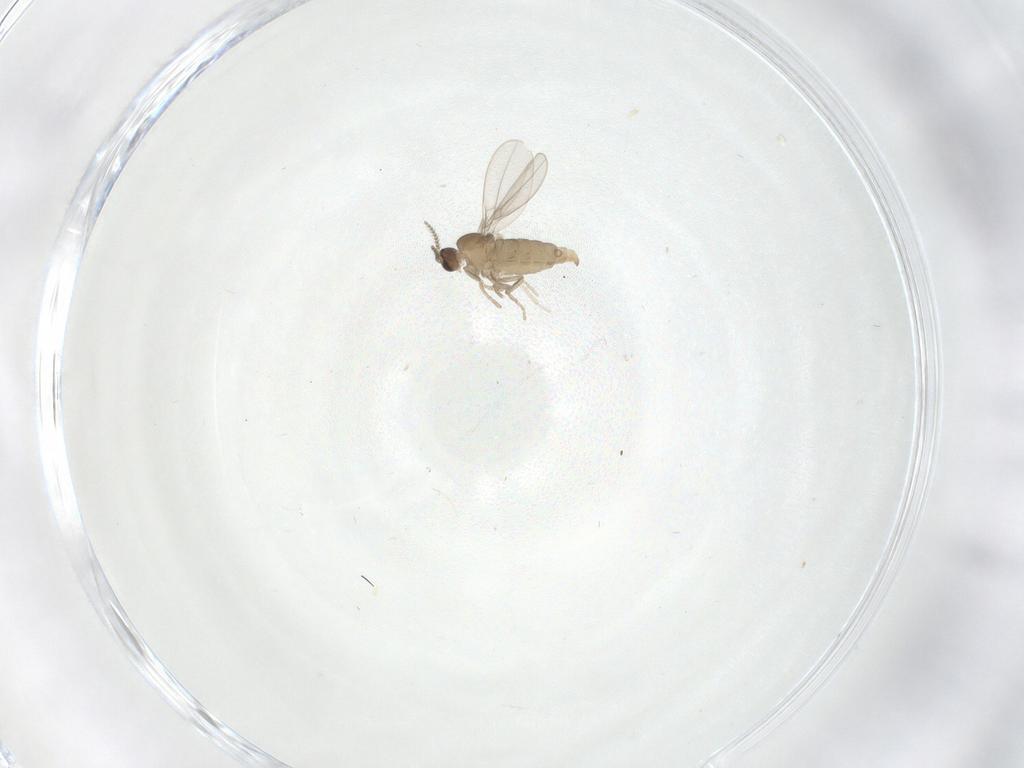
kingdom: Animalia
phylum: Arthropoda
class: Insecta
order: Diptera
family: Cecidomyiidae
